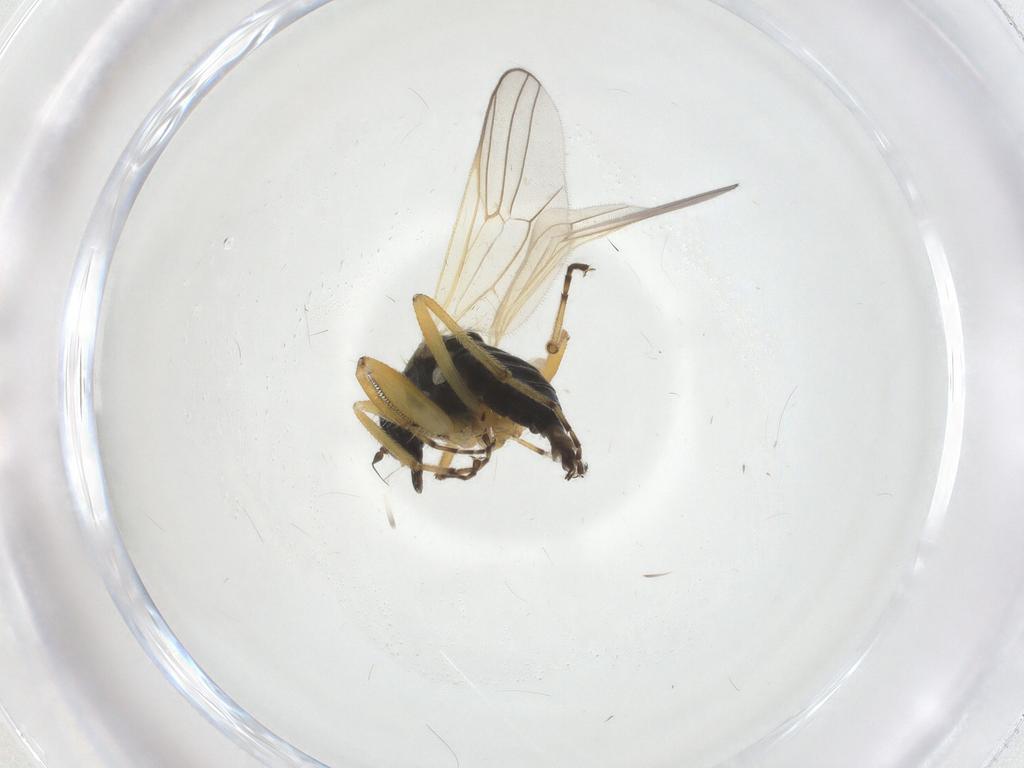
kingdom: Animalia
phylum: Arthropoda
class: Insecta
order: Diptera
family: Hybotidae
